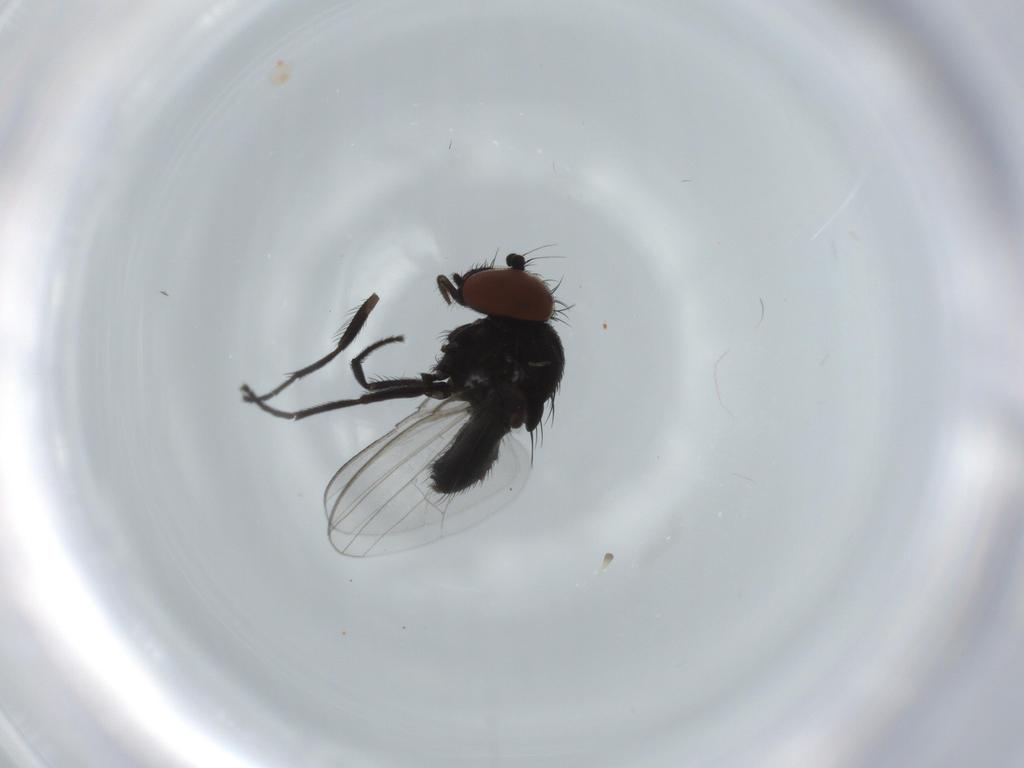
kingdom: Animalia
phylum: Arthropoda
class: Insecta
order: Diptera
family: Milichiidae
